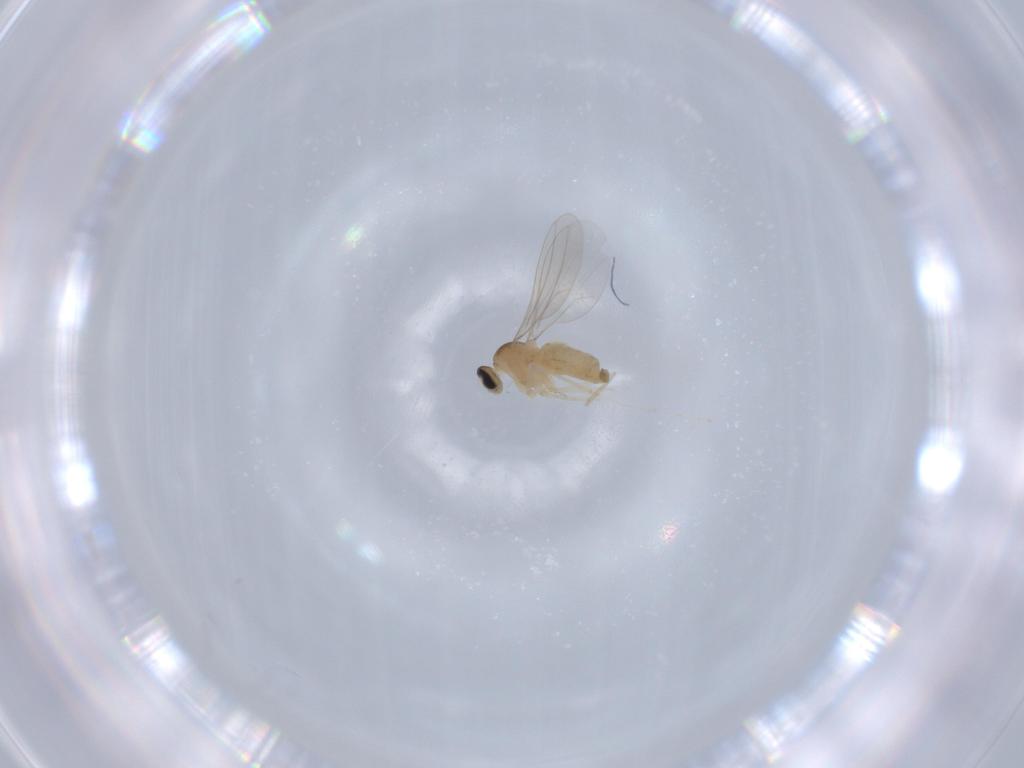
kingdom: Animalia
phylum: Arthropoda
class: Insecta
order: Diptera
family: Cecidomyiidae
